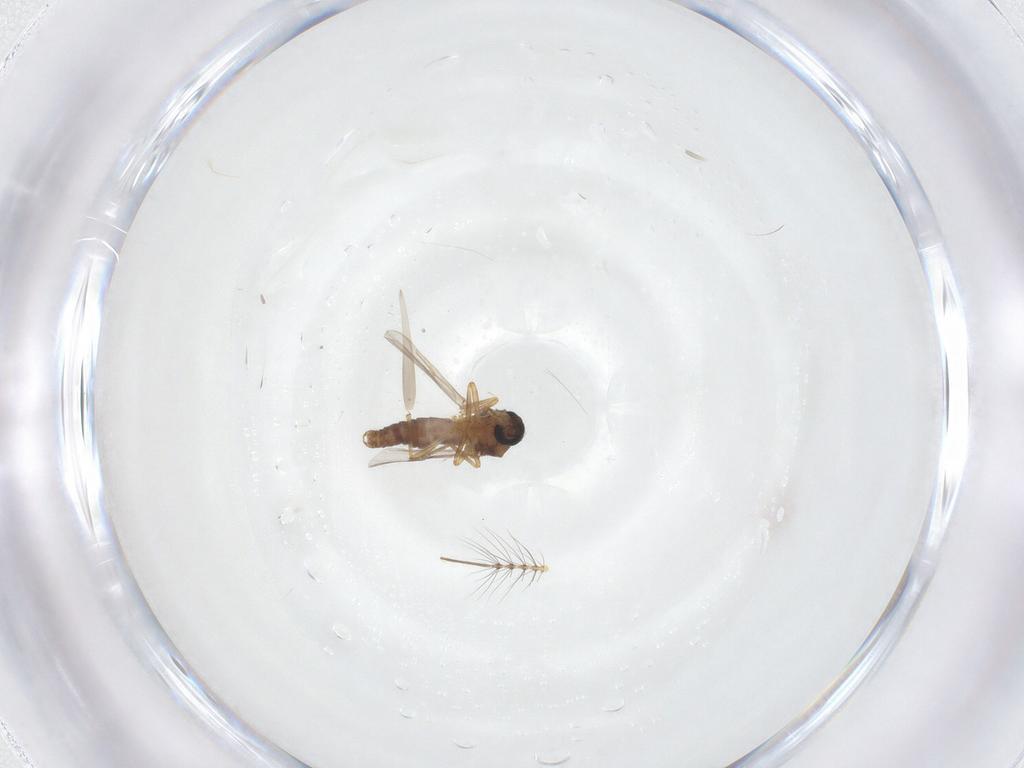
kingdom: Animalia
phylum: Arthropoda
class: Insecta
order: Diptera
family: Ceratopogonidae
